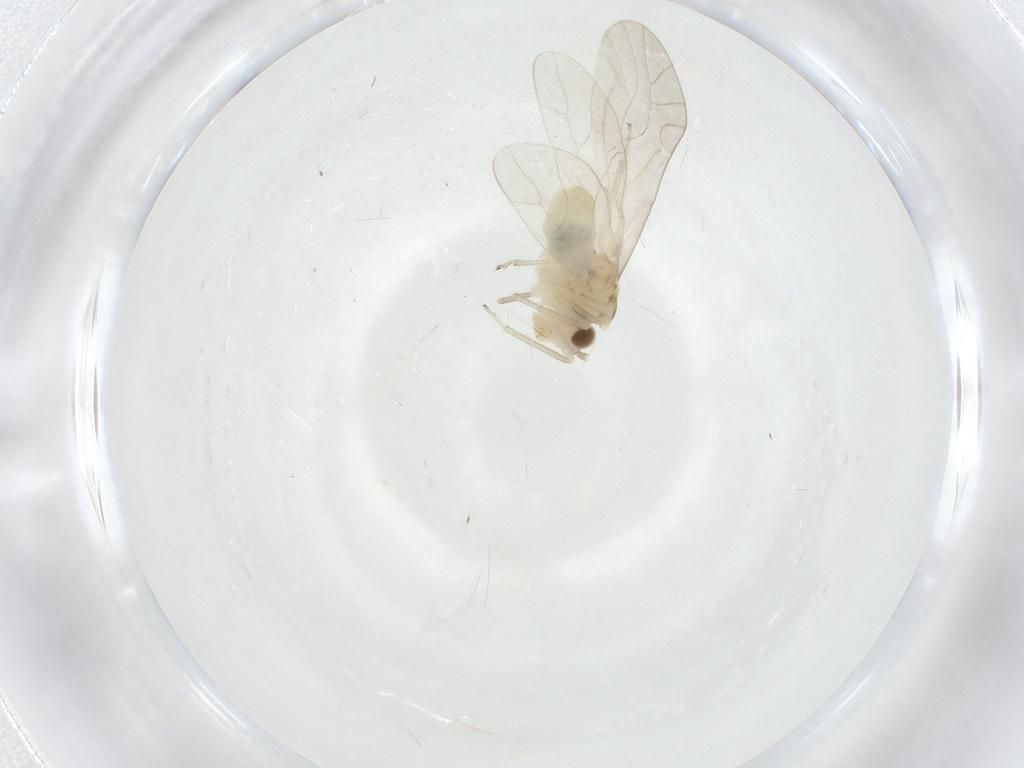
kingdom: Animalia
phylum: Arthropoda
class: Insecta
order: Psocodea
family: Caeciliusidae
